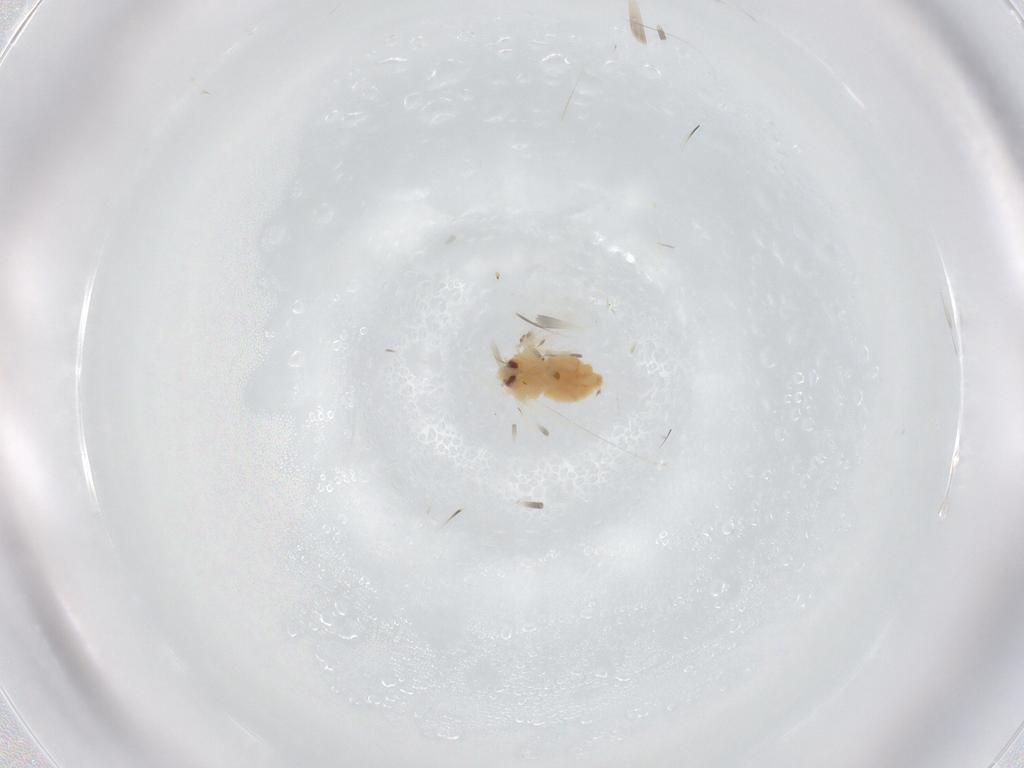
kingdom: Animalia
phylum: Arthropoda
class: Insecta
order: Hemiptera
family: Aleyrodidae
